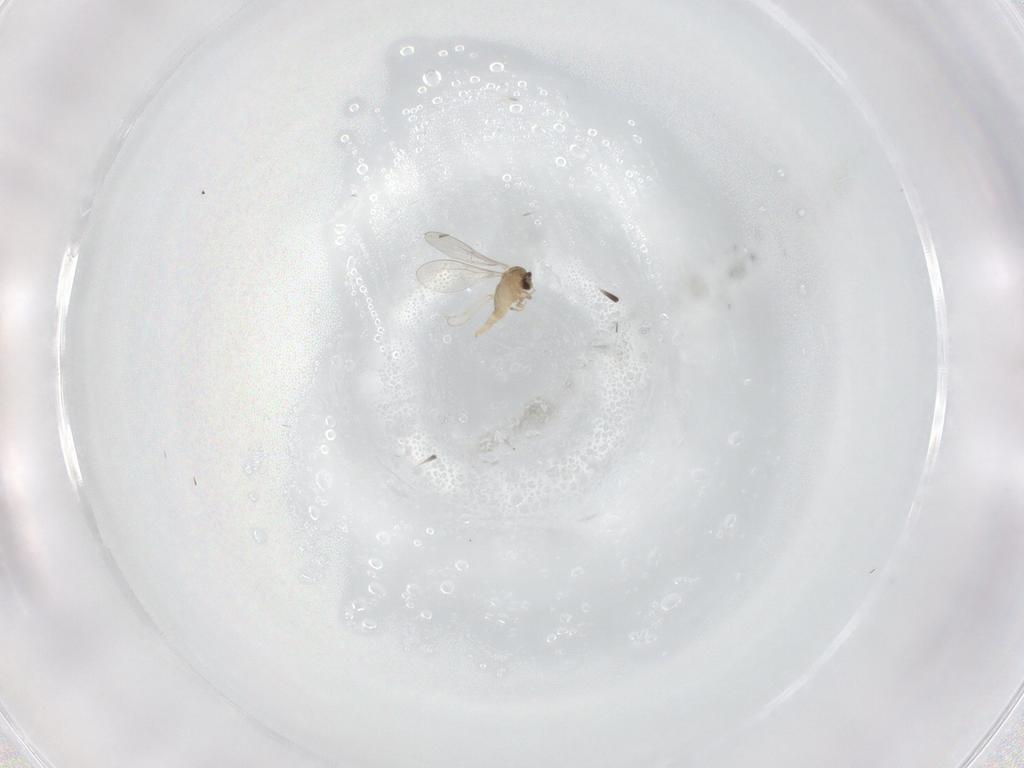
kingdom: Animalia
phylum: Arthropoda
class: Insecta
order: Diptera
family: Cecidomyiidae
